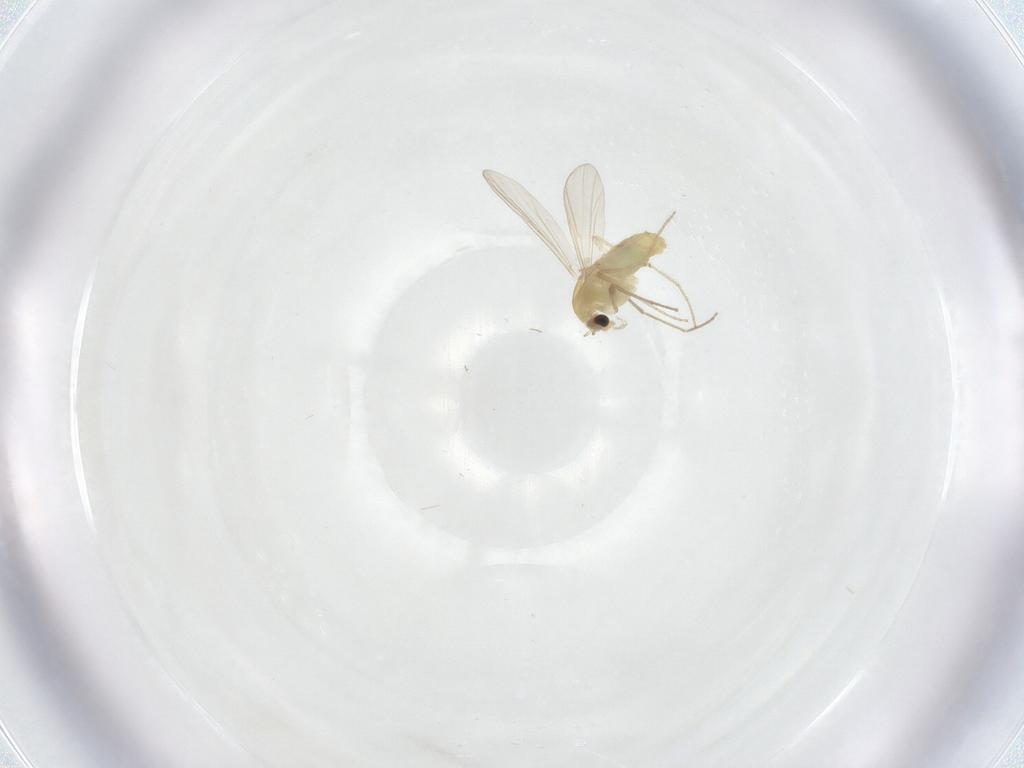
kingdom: Animalia
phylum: Arthropoda
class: Insecta
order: Diptera
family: Chironomidae
